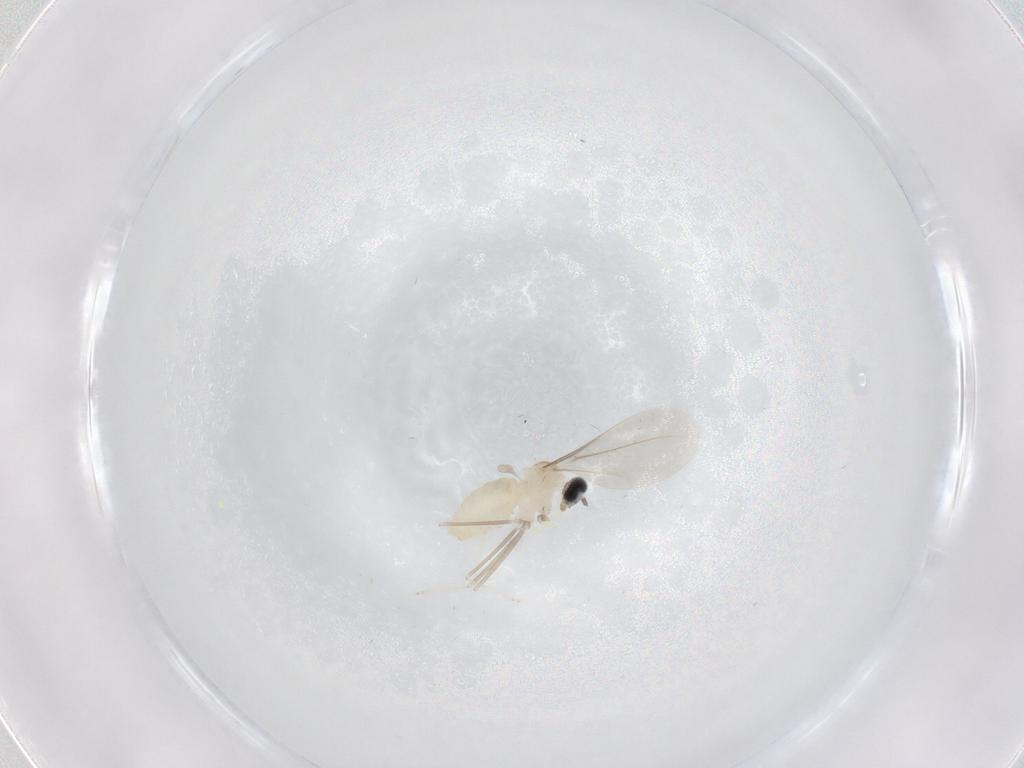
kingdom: Animalia
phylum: Arthropoda
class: Insecta
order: Diptera
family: Cecidomyiidae
